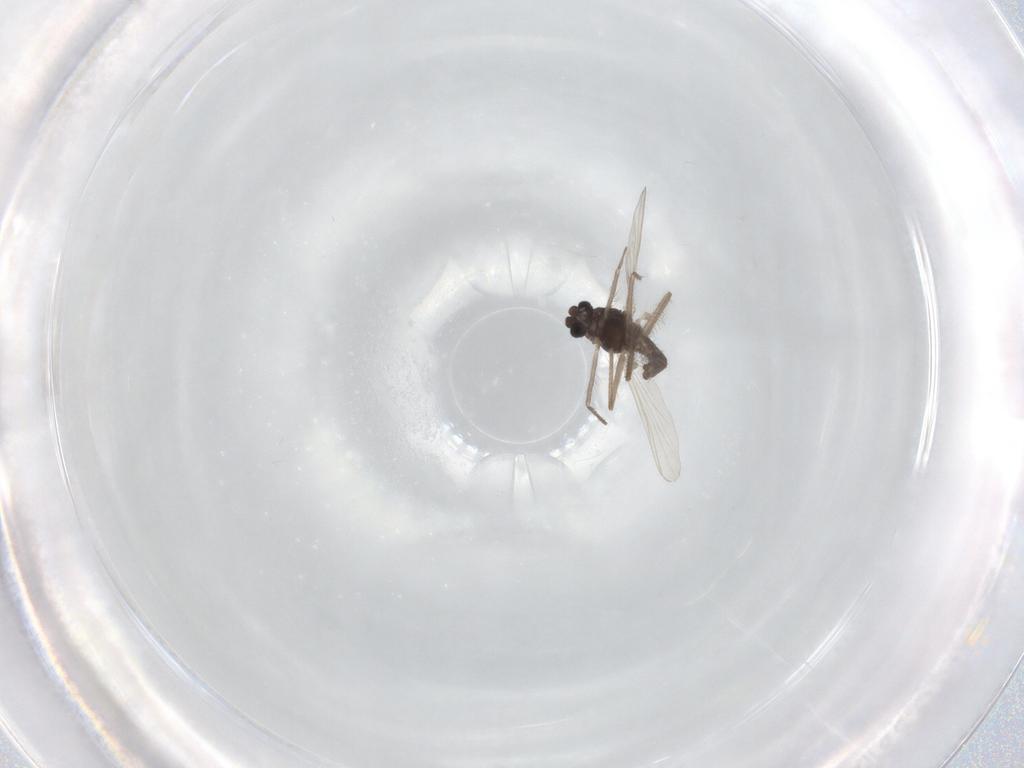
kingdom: Animalia
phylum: Arthropoda
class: Insecta
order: Diptera
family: Chironomidae
